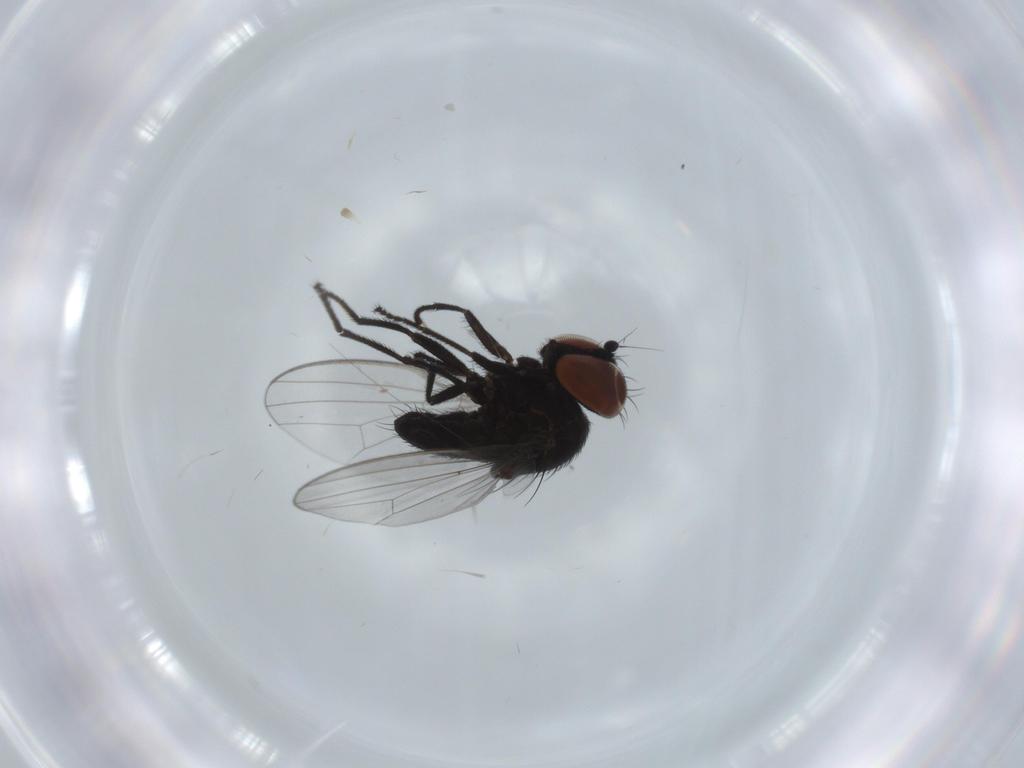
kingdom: Animalia
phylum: Arthropoda
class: Insecta
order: Diptera
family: Milichiidae
